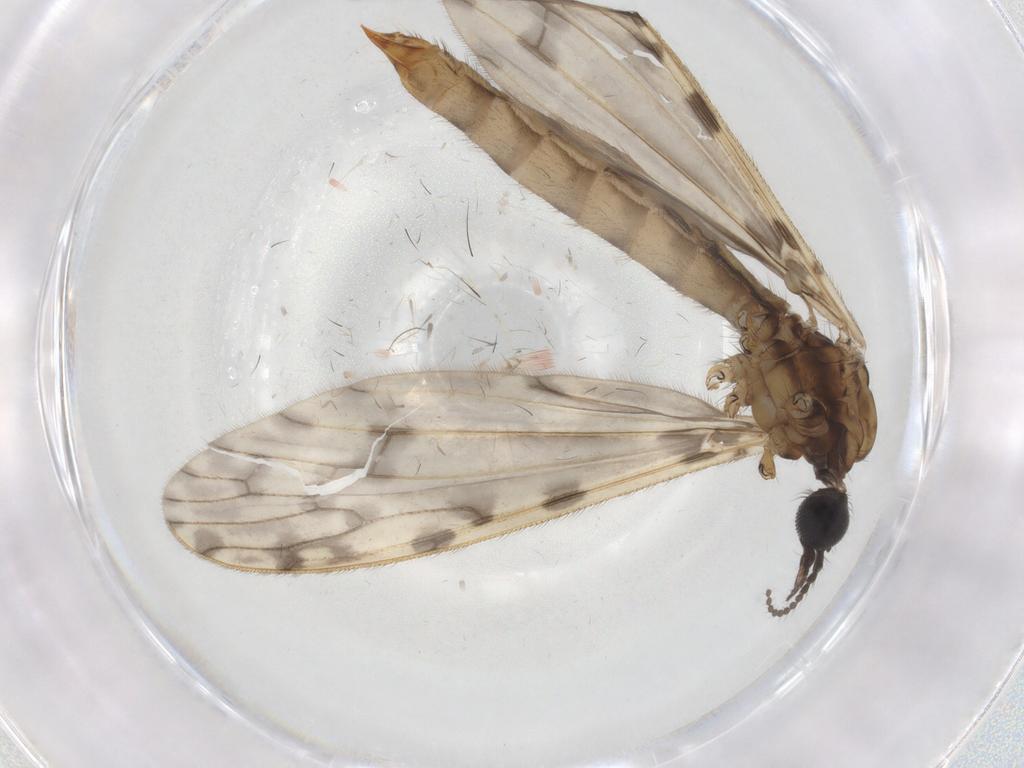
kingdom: Animalia
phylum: Arthropoda
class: Insecta
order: Diptera
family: Limoniidae
